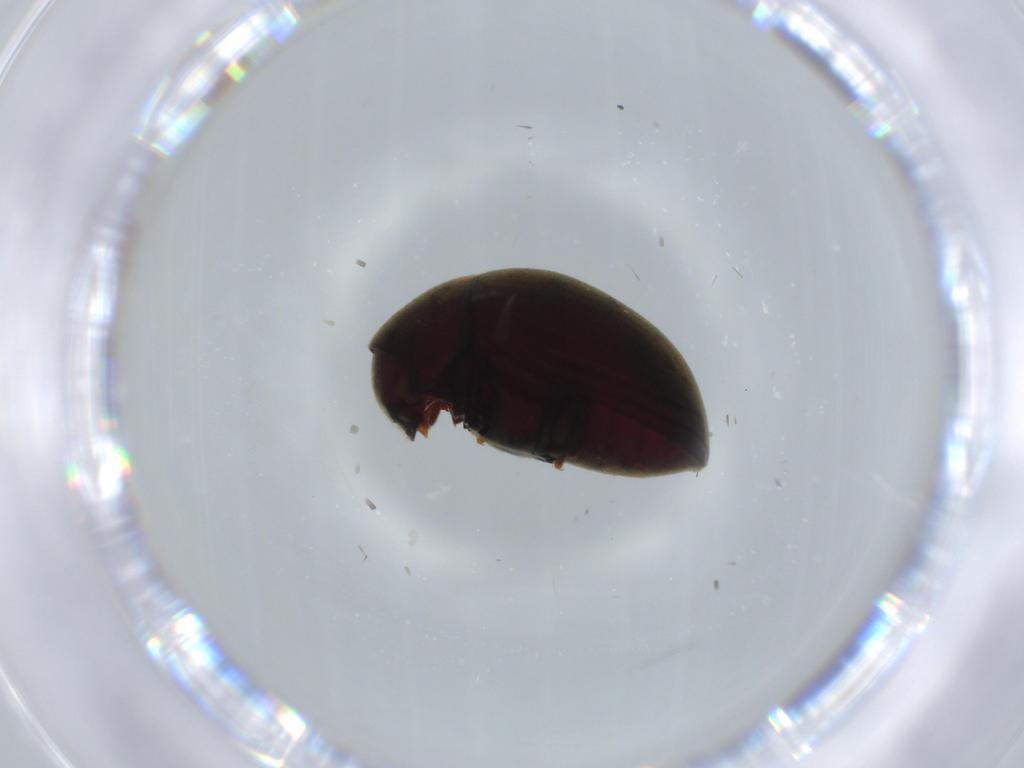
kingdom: Animalia
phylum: Arthropoda
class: Insecta
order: Coleoptera
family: Ptinidae
